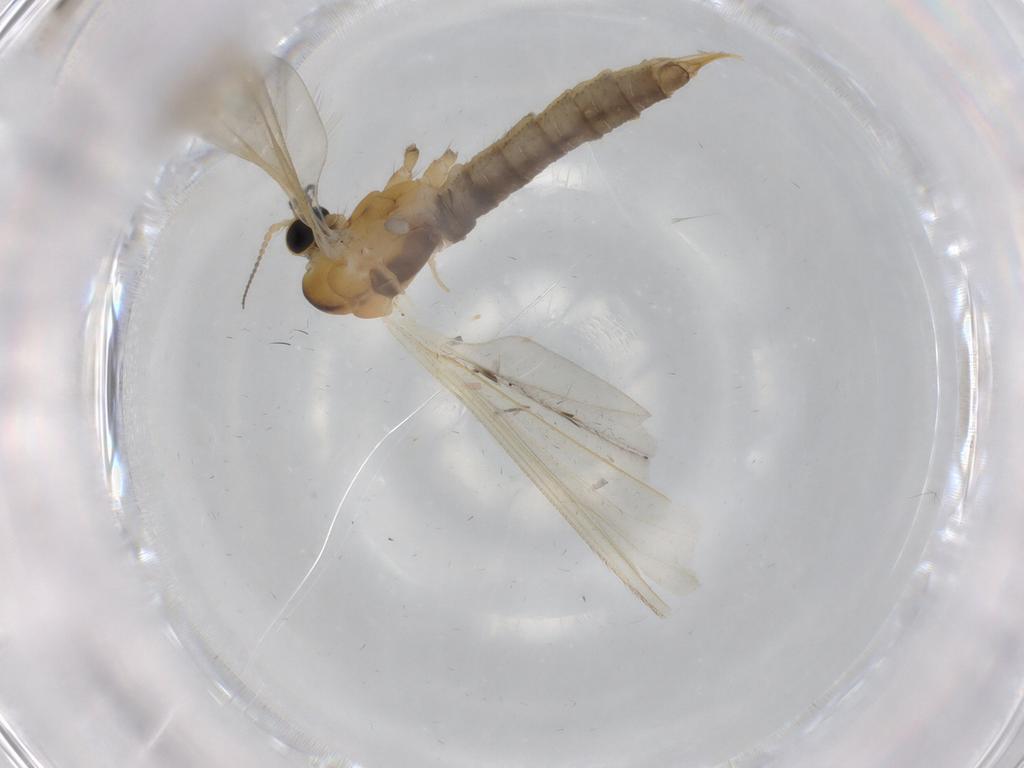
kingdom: Animalia
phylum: Arthropoda
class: Insecta
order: Diptera
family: Limoniidae
